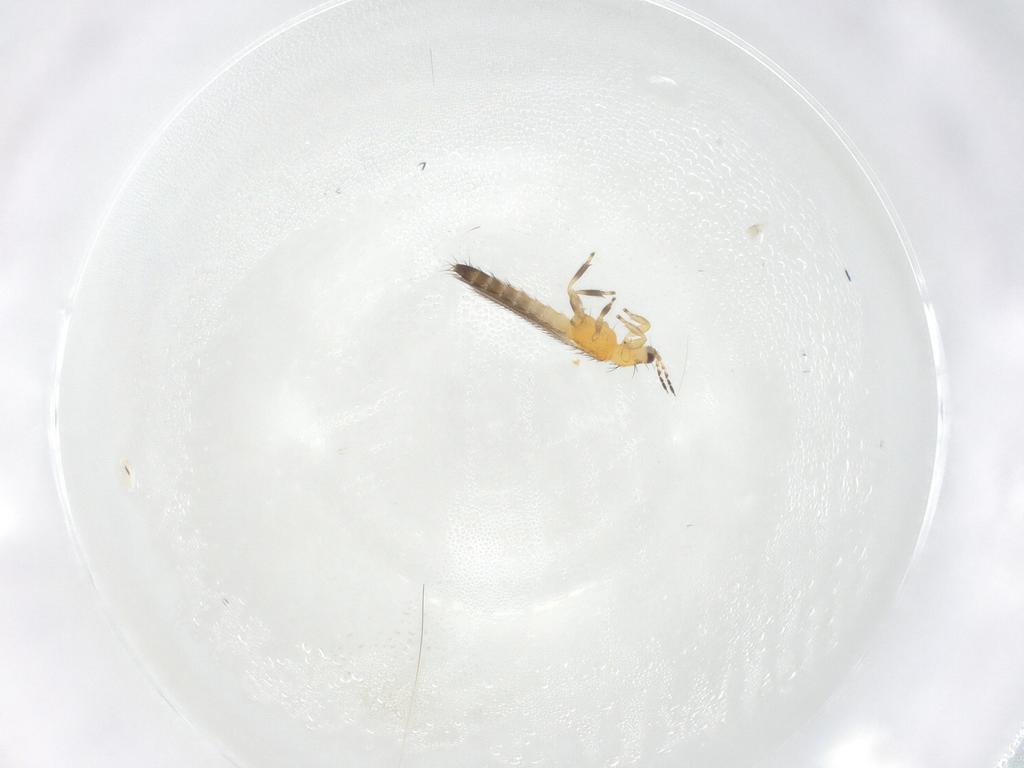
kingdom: Animalia
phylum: Arthropoda
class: Insecta
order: Thysanoptera
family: Thripidae
